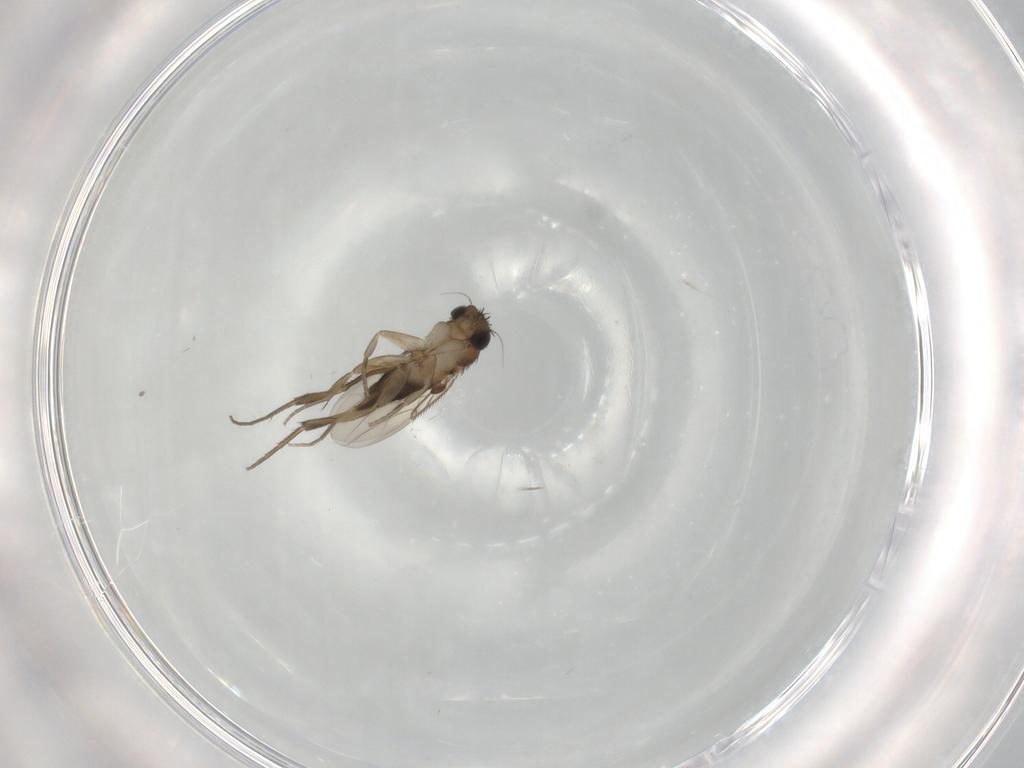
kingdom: Animalia
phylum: Arthropoda
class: Insecta
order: Diptera
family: Phoridae
